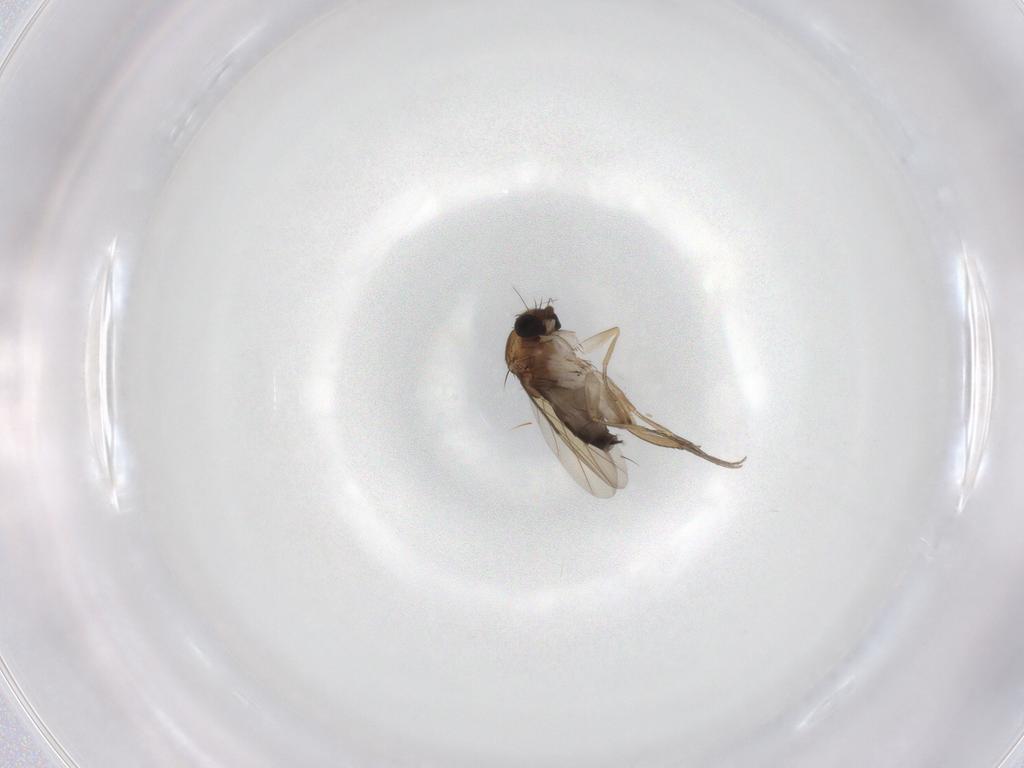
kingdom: Animalia
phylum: Arthropoda
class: Insecta
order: Diptera
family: Phoridae
